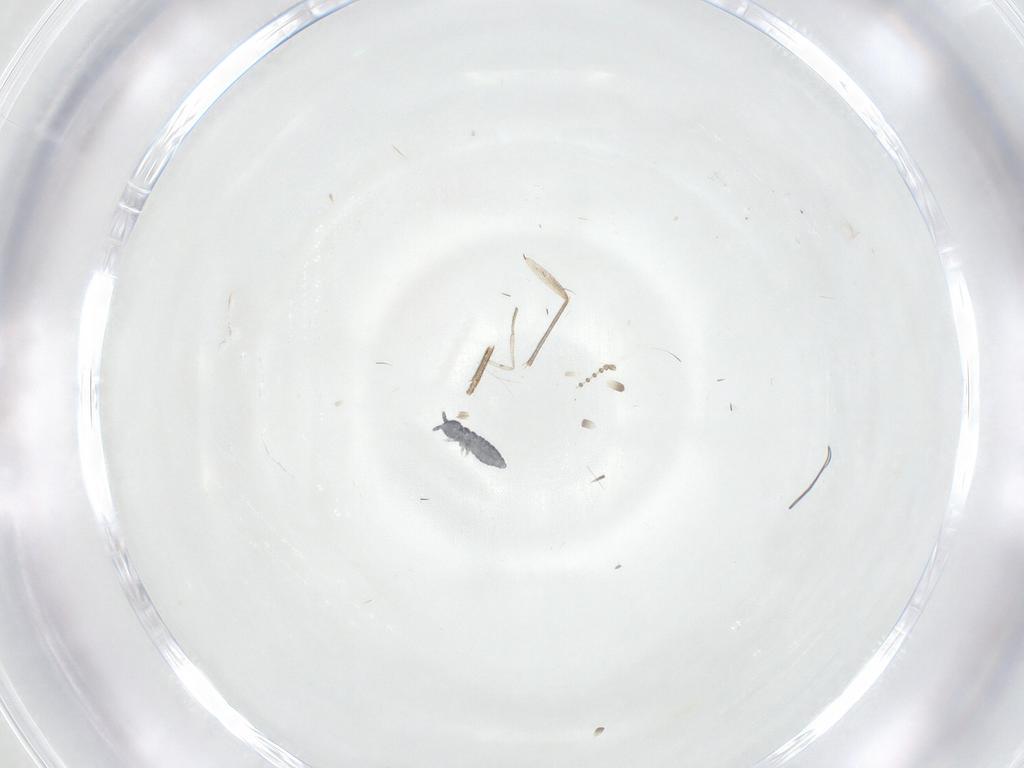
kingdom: Animalia
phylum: Arthropoda
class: Insecta
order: Diptera
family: Psychodidae
